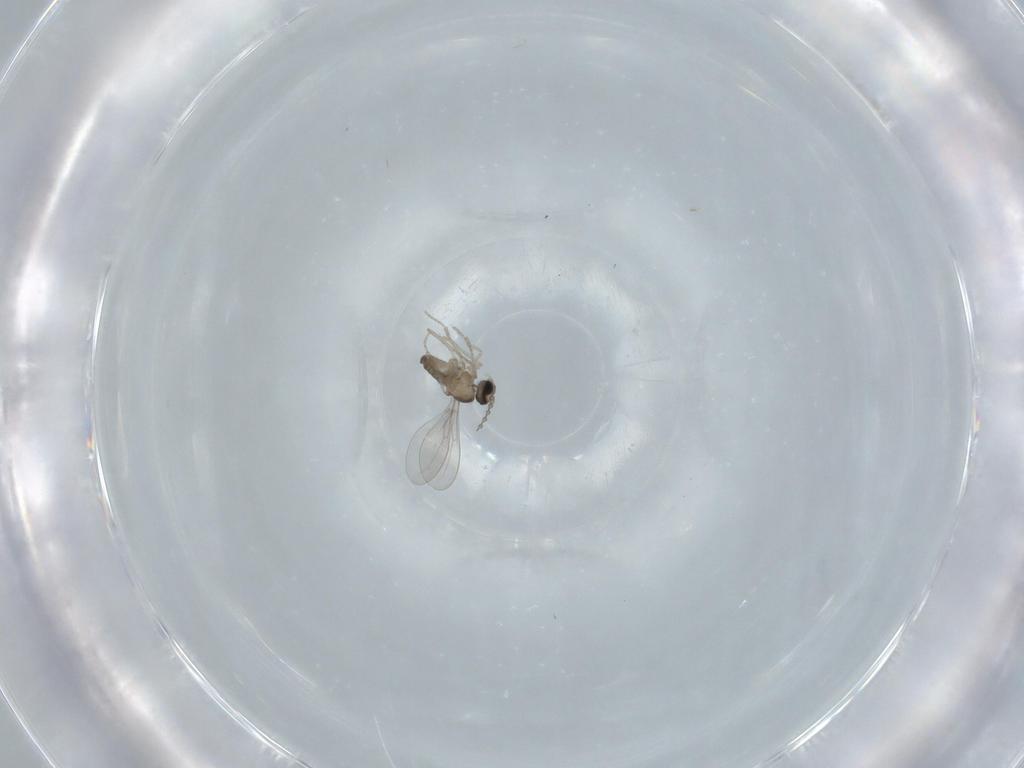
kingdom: Animalia
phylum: Arthropoda
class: Insecta
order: Diptera
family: Cecidomyiidae
